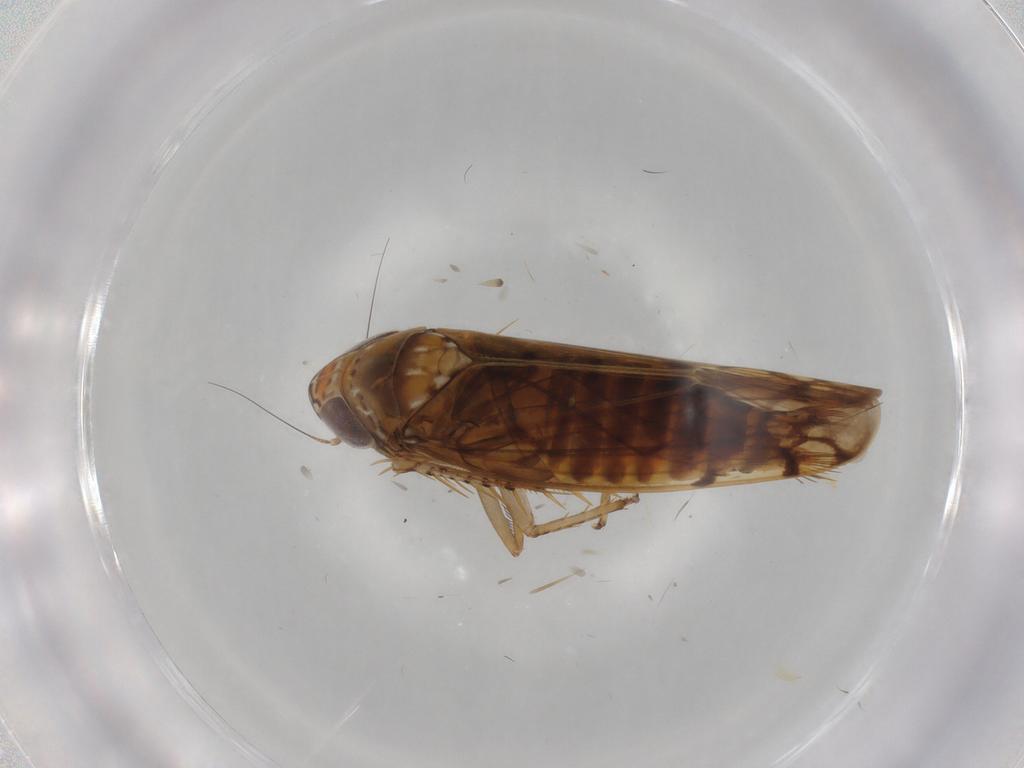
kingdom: Animalia
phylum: Arthropoda
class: Insecta
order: Hemiptera
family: Cicadellidae
